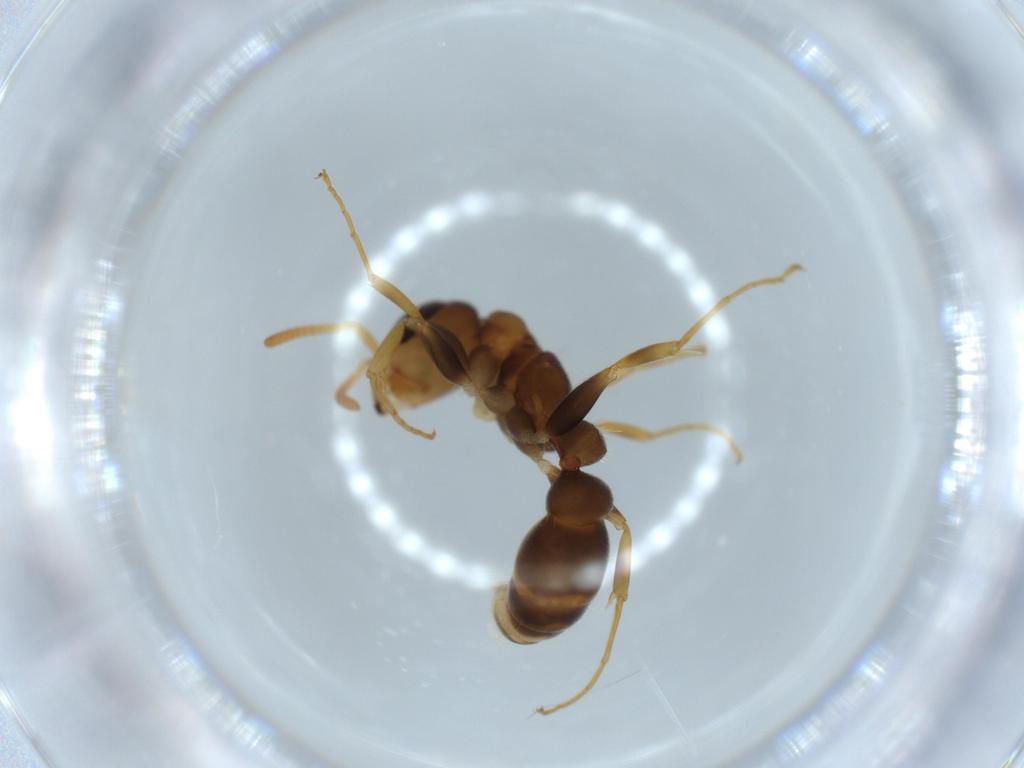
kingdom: Animalia
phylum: Arthropoda
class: Insecta
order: Hymenoptera
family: Formicidae
